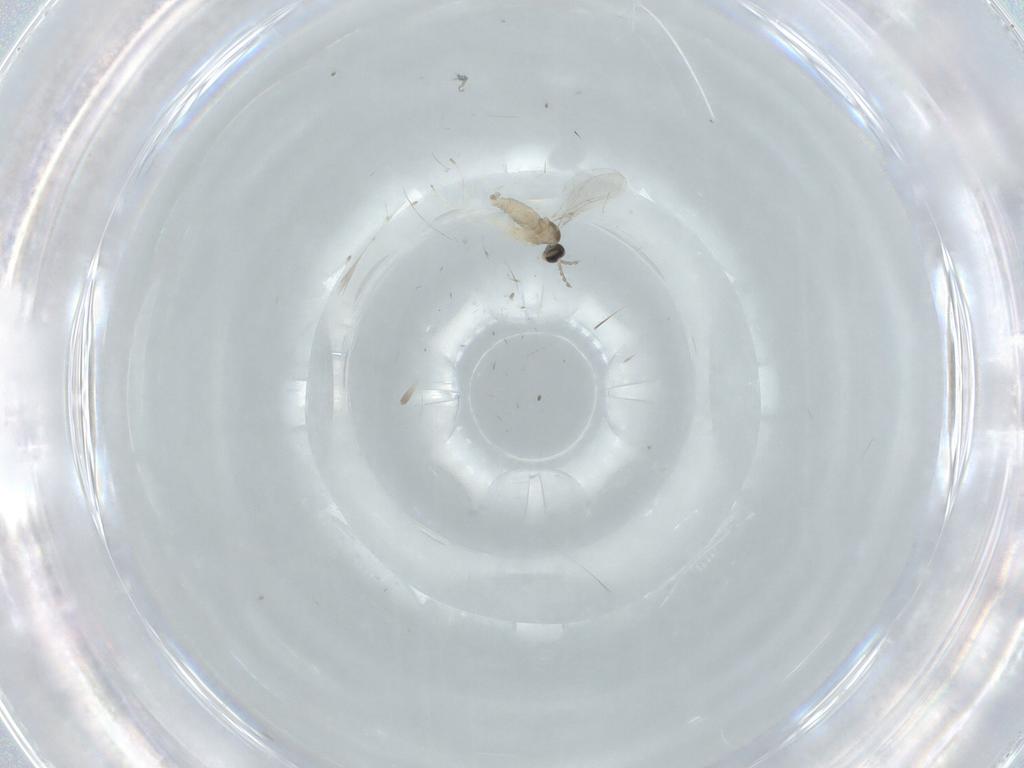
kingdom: Animalia
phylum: Arthropoda
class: Insecta
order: Diptera
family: Cecidomyiidae
